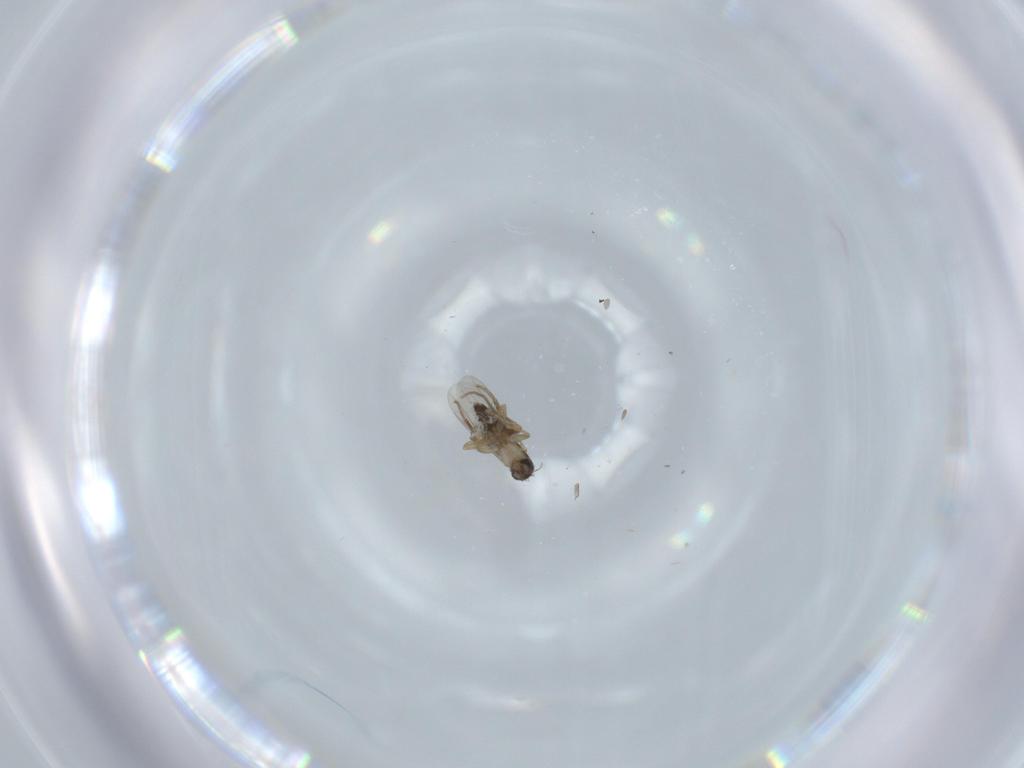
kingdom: Animalia
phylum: Arthropoda
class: Insecta
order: Diptera
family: Phoridae
